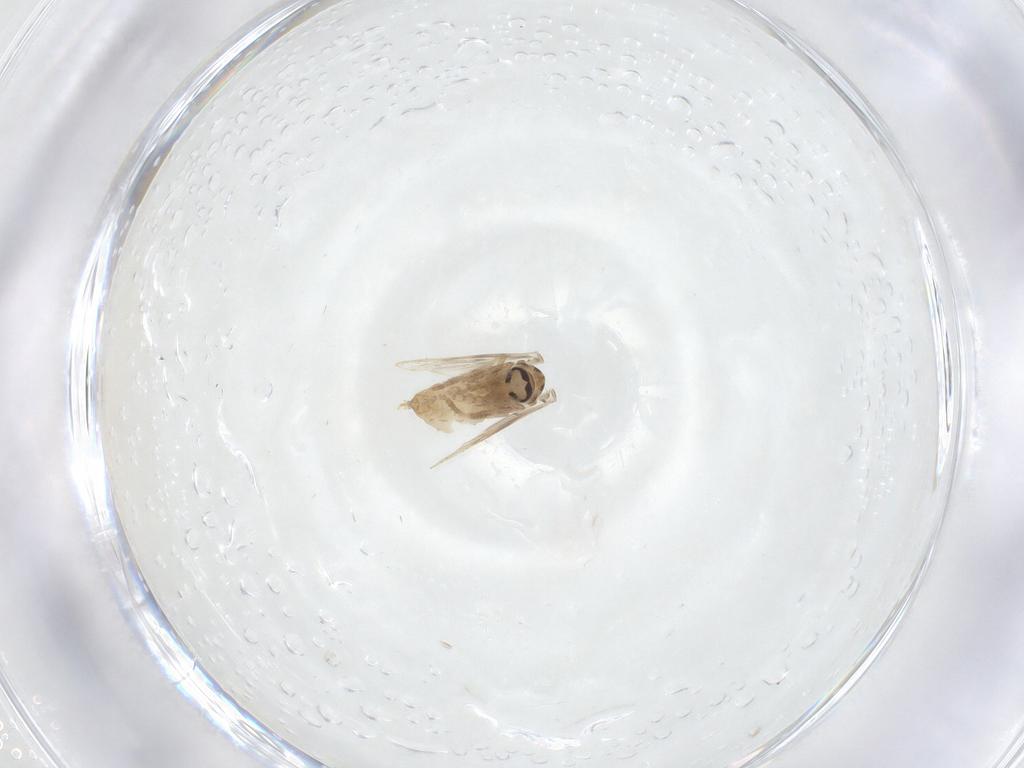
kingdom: Animalia
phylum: Arthropoda
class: Insecta
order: Diptera
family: Psychodidae
